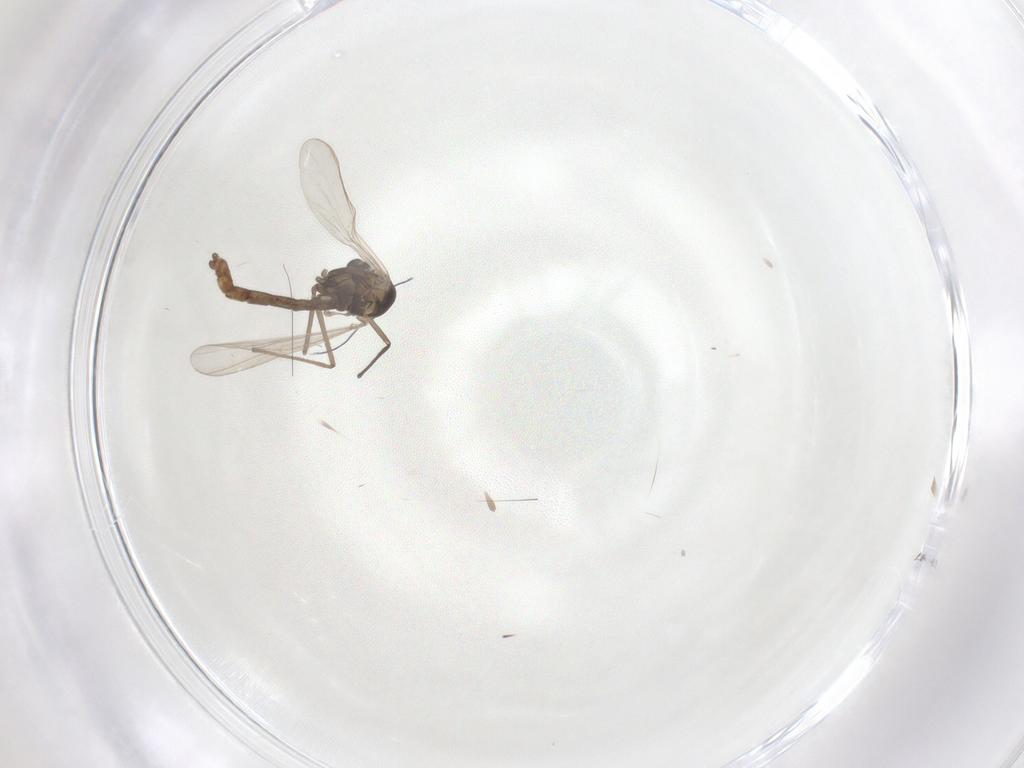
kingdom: Animalia
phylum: Arthropoda
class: Insecta
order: Diptera
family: Chironomidae
